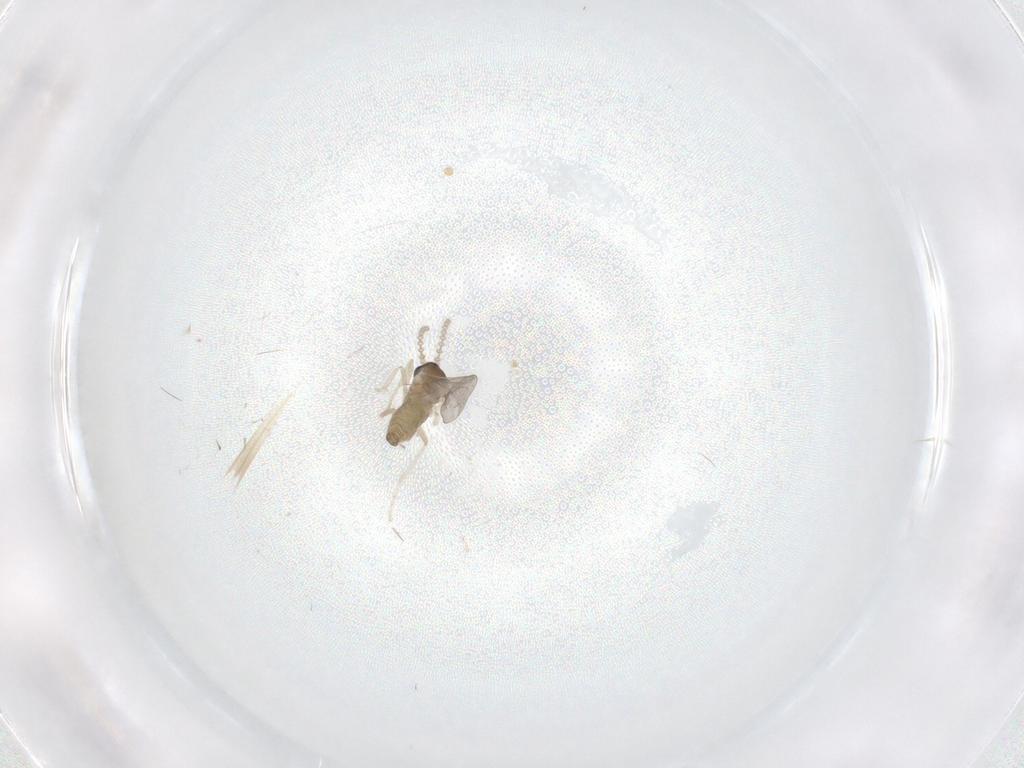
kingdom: Animalia
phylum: Arthropoda
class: Insecta
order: Diptera
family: Cecidomyiidae
